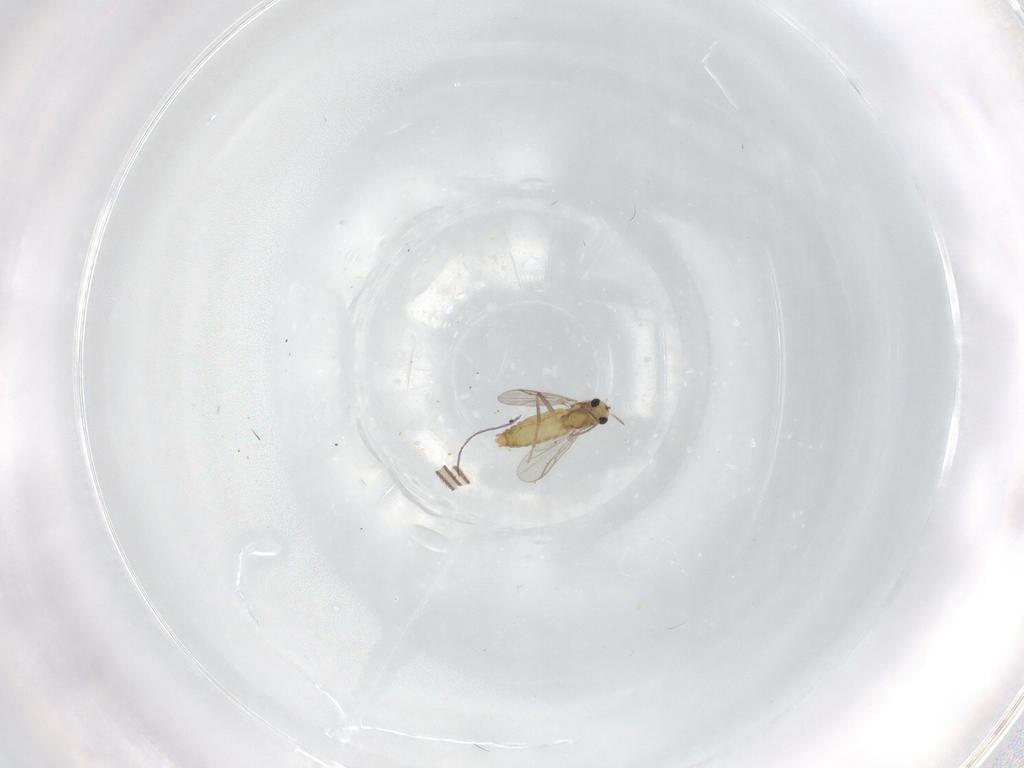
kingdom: Animalia
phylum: Arthropoda
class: Insecta
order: Diptera
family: Chironomidae
